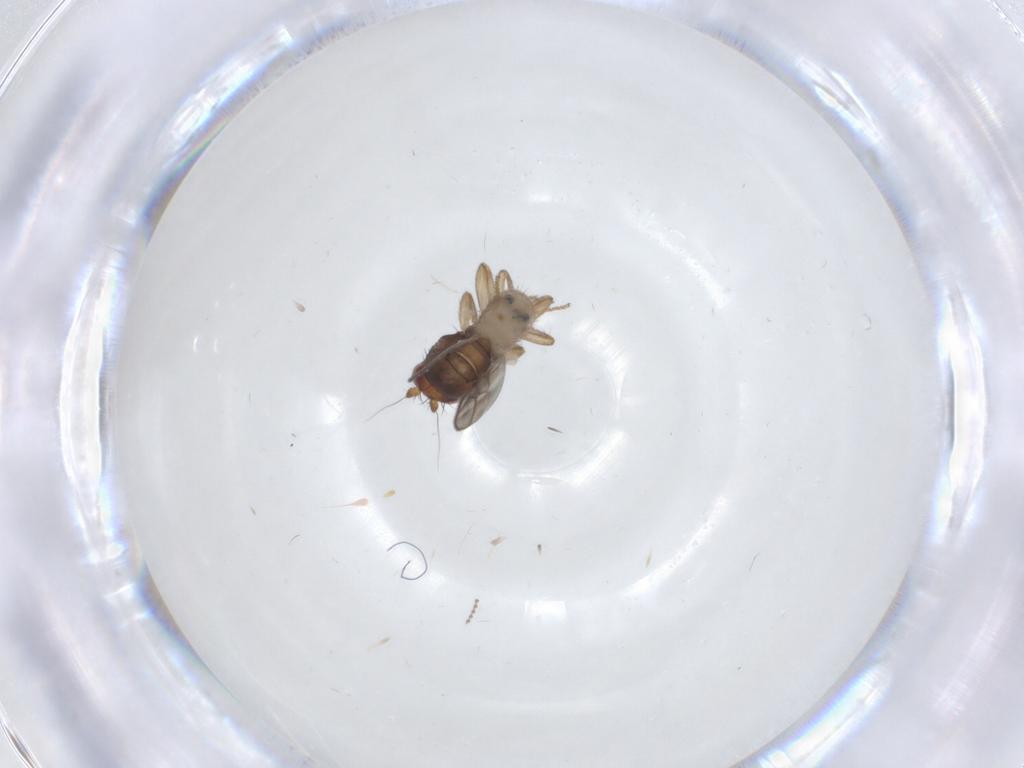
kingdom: Animalia
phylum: Arthropoda
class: Insecta
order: Diptera
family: Sphaeroceridae
